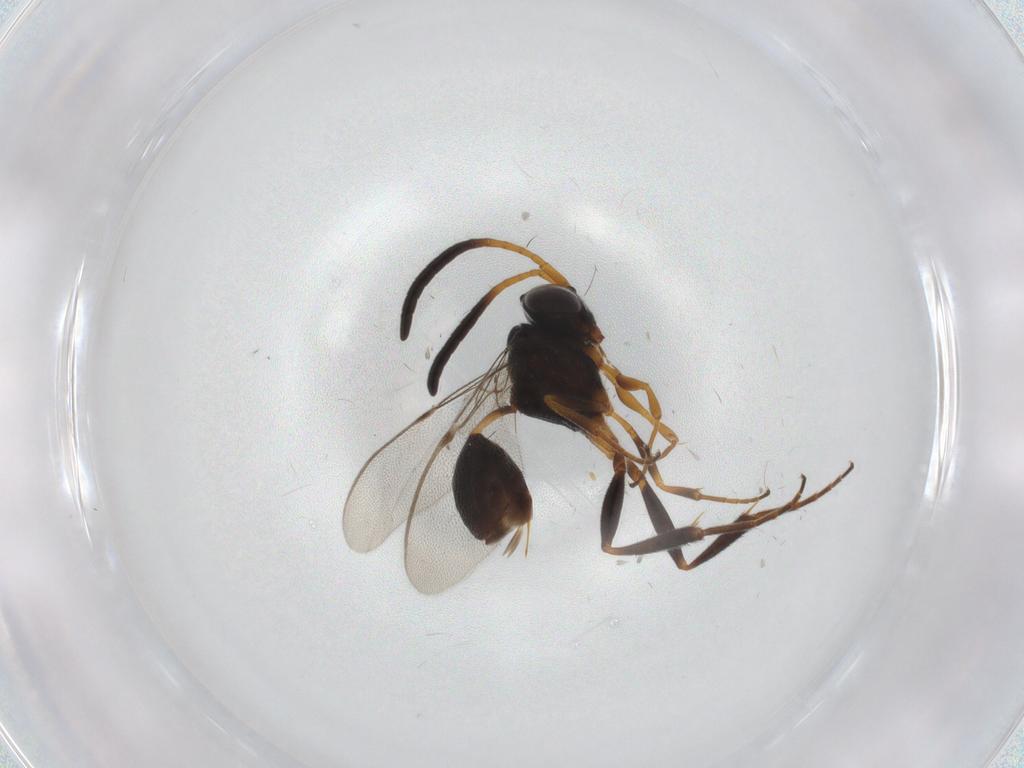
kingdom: Animalia
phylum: Arthropoda
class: Insecta
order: Hymenoptera
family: Evaniidae
